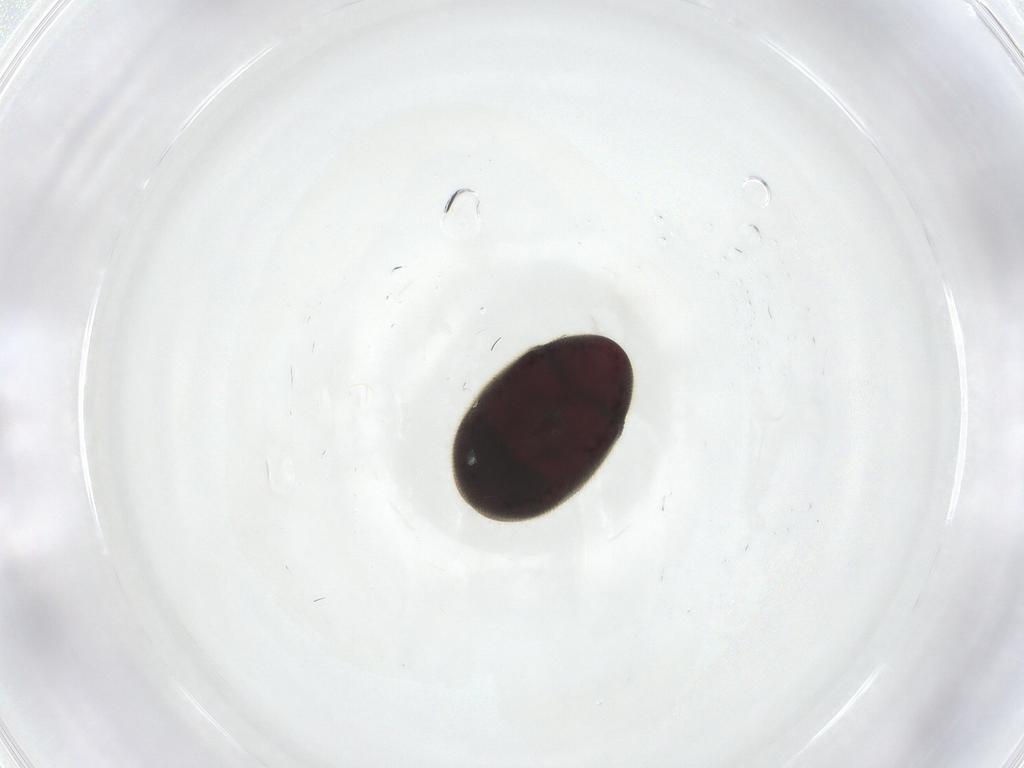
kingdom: Animalia
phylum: Arthropoda
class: Insecta
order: Coleoptera
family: Ptinidae
